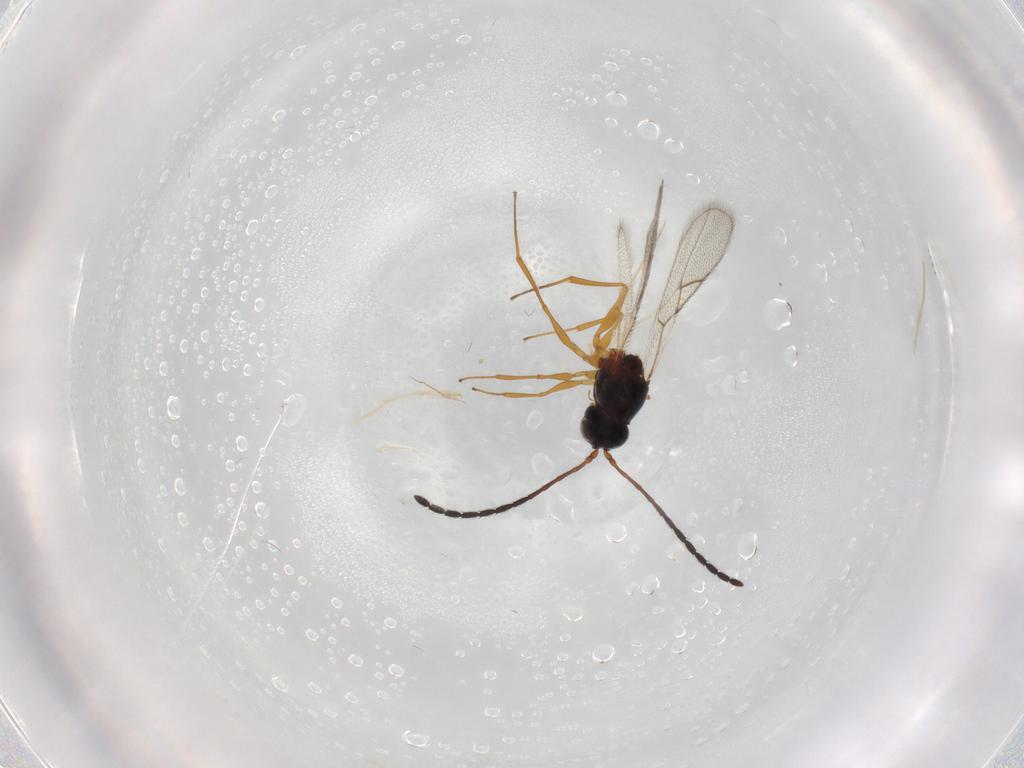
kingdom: Animalia
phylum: Arthropoda
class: Insecta
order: Hymenoptera
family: Figitidae
